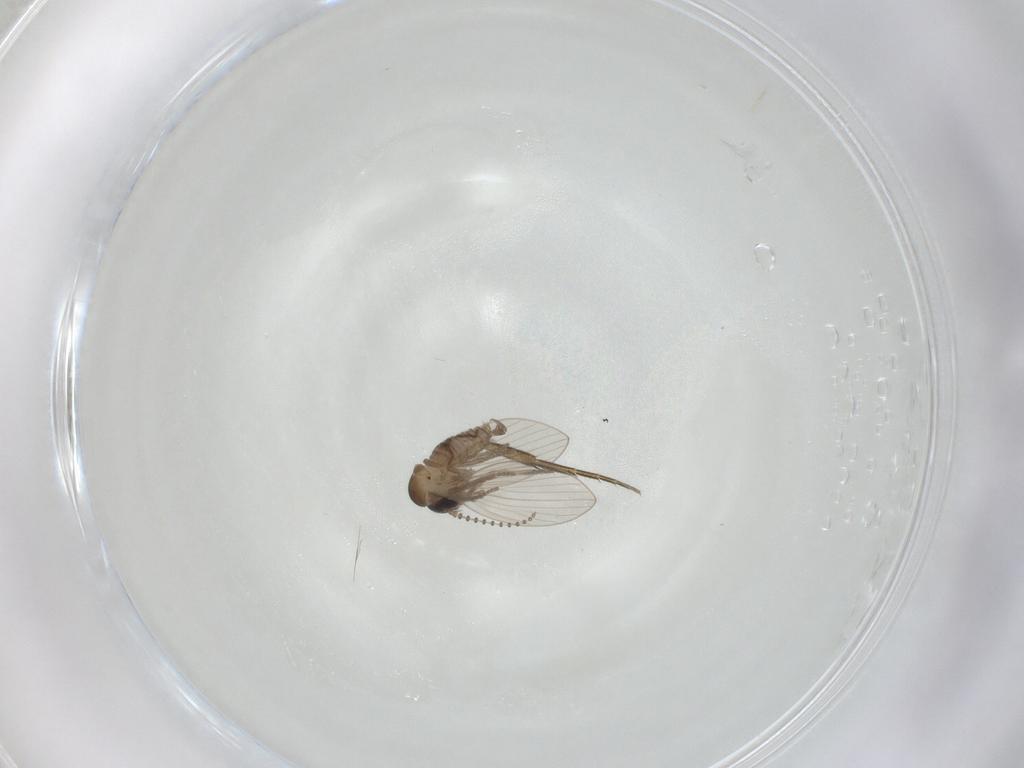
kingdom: Animalia
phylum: Arthropoda
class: Insecta
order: Diptera
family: Psychodidae
